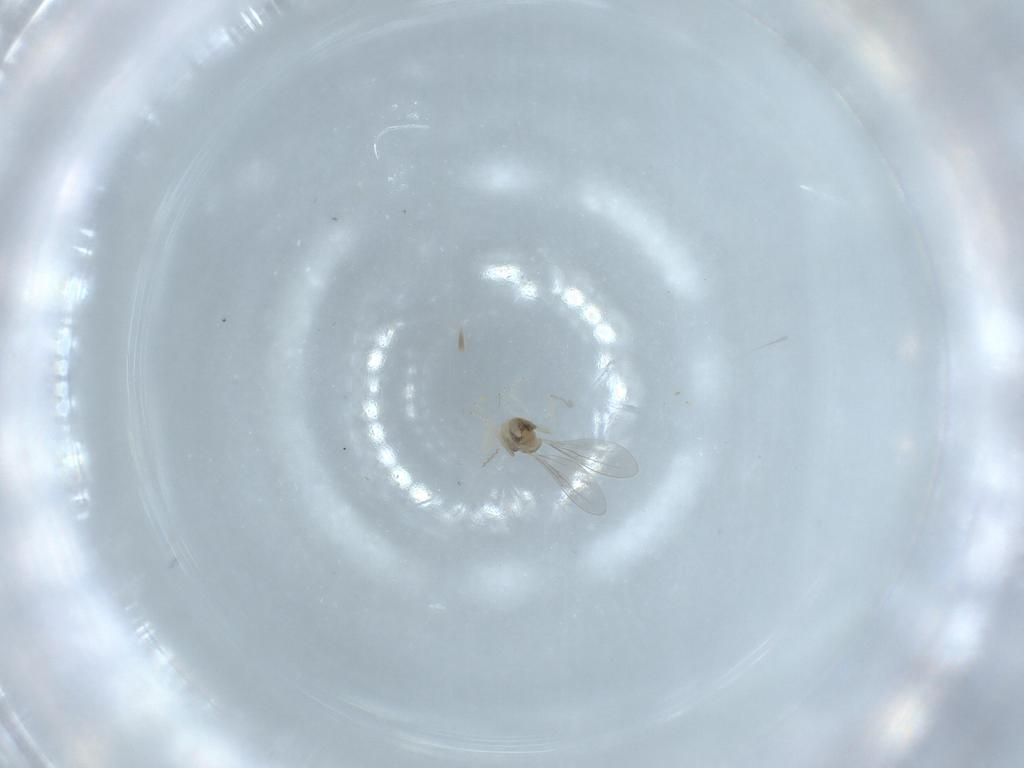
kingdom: Animalia
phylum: Arthropoda
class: Insecta
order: Diptera
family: Cecidomyiidae
